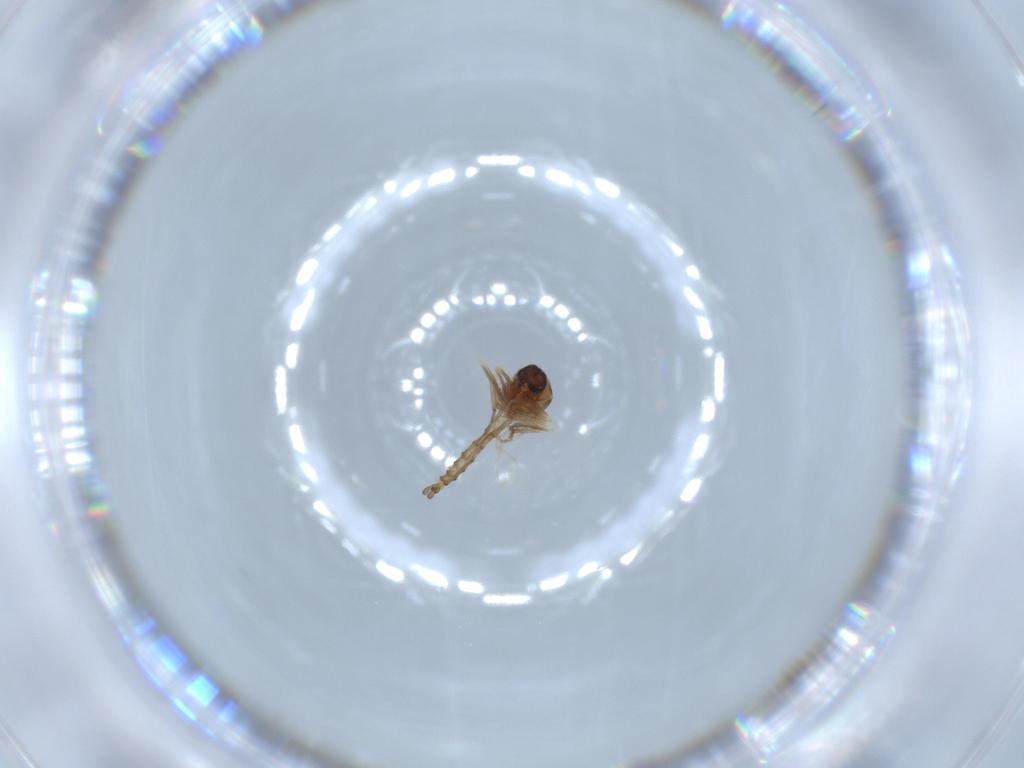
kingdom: Animalia
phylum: Arthropoda
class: Insecta
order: Diptera
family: Ceratopogonidae
